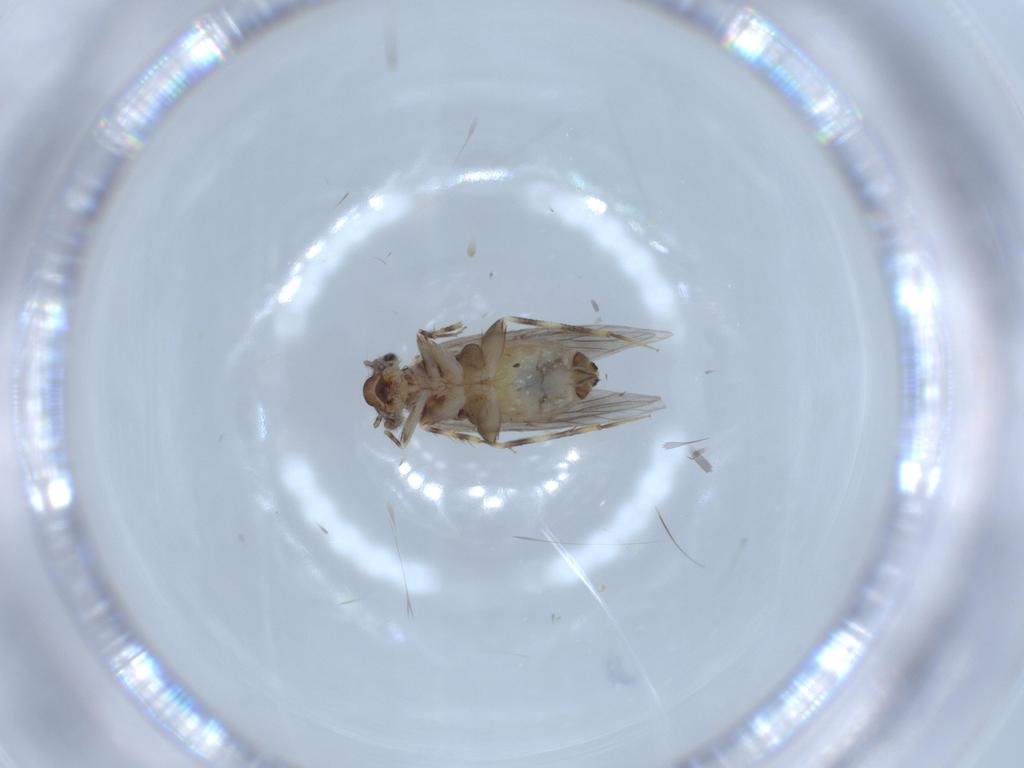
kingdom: Animalia
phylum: Arthropoda
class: Insecta
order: Psocodea
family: Lepidopsocidae
